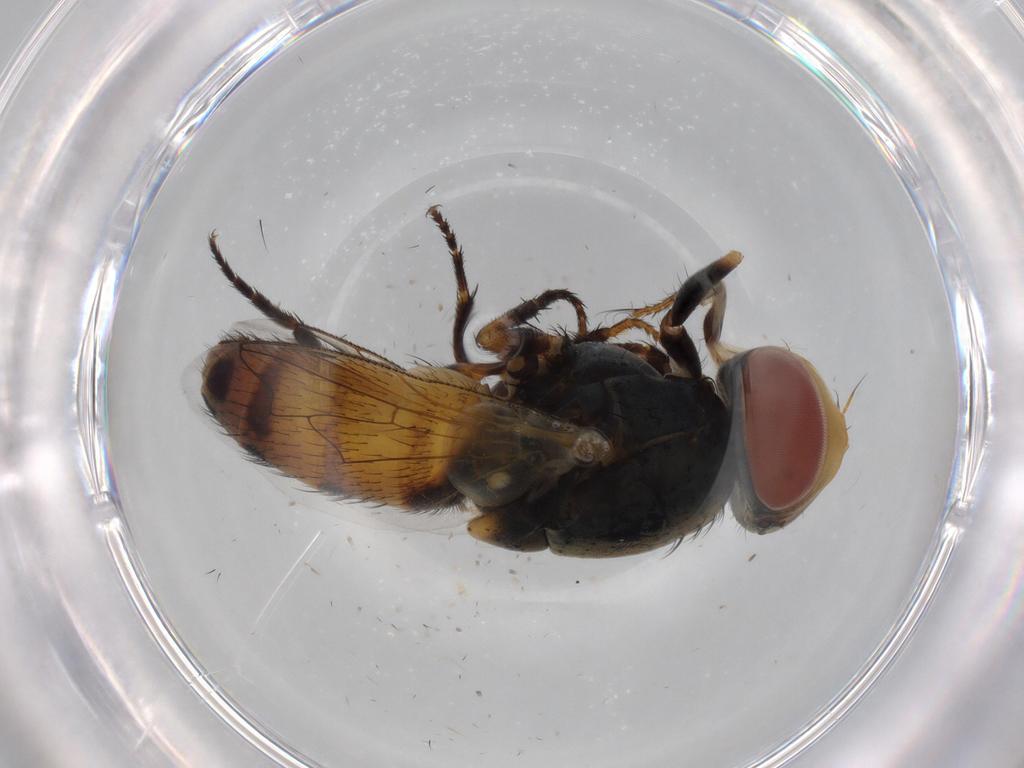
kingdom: Animalia
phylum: Arthropoda
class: Insecta
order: Diptera
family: Sarcophagidae
